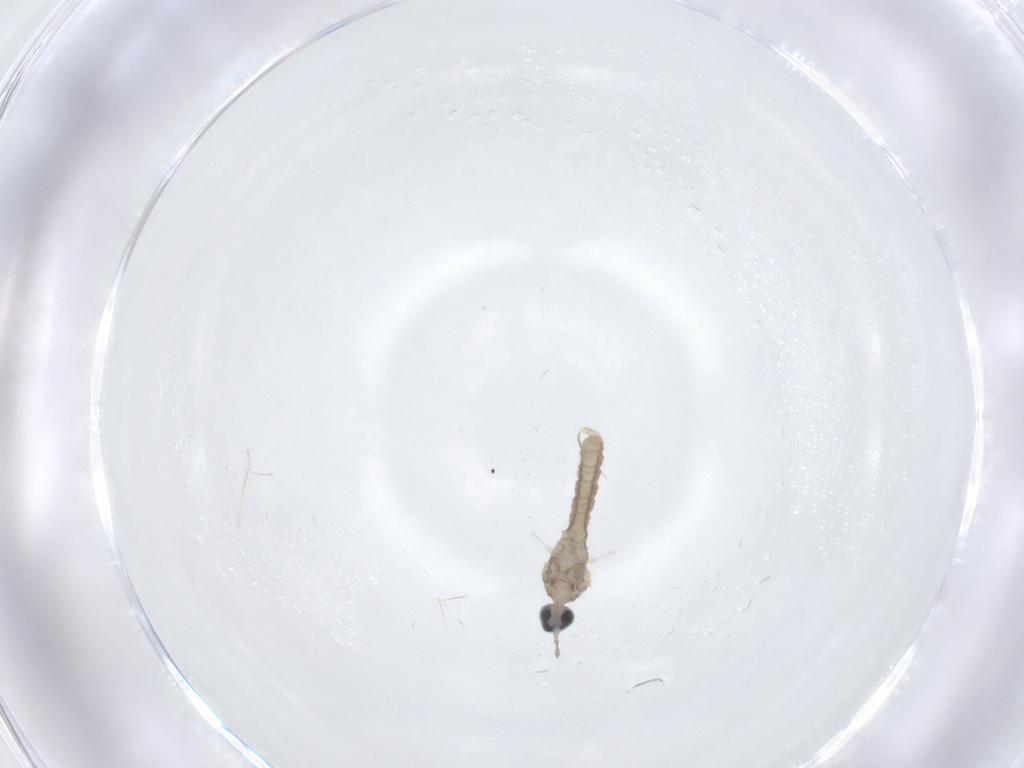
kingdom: Animalia
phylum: Arthropoda
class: Insecta
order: Diptera
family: Cecidomyiidae
